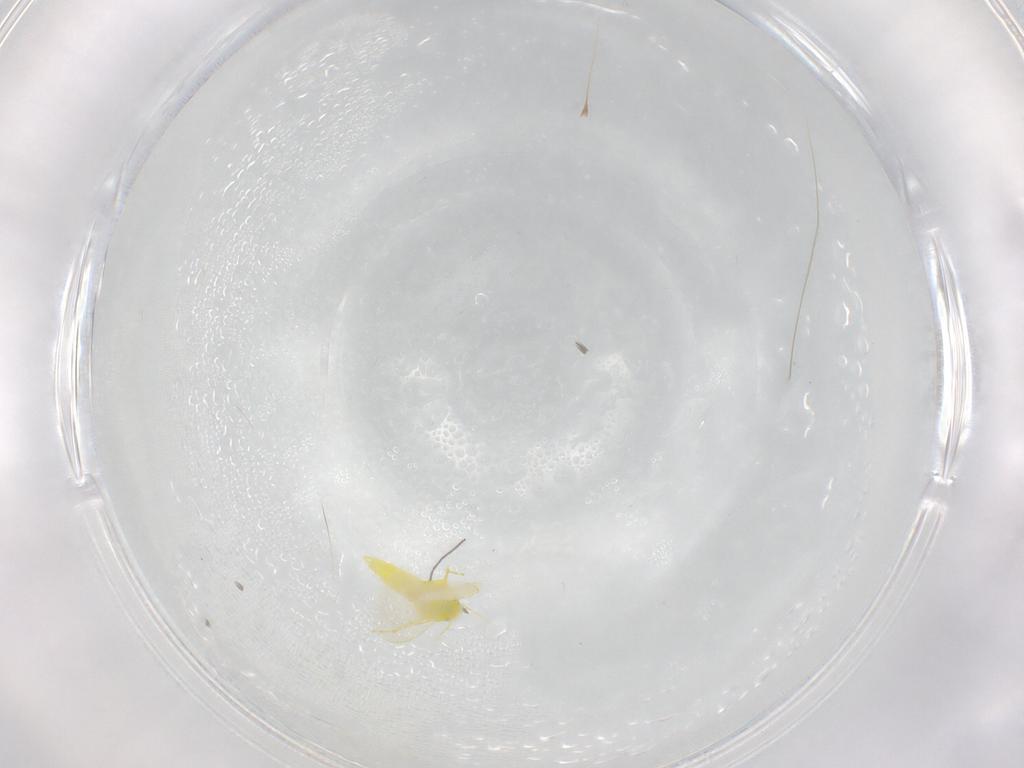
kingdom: Animalia
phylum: Arthropoda
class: Insecta
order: Hemiptera
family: Aleyrodidae
